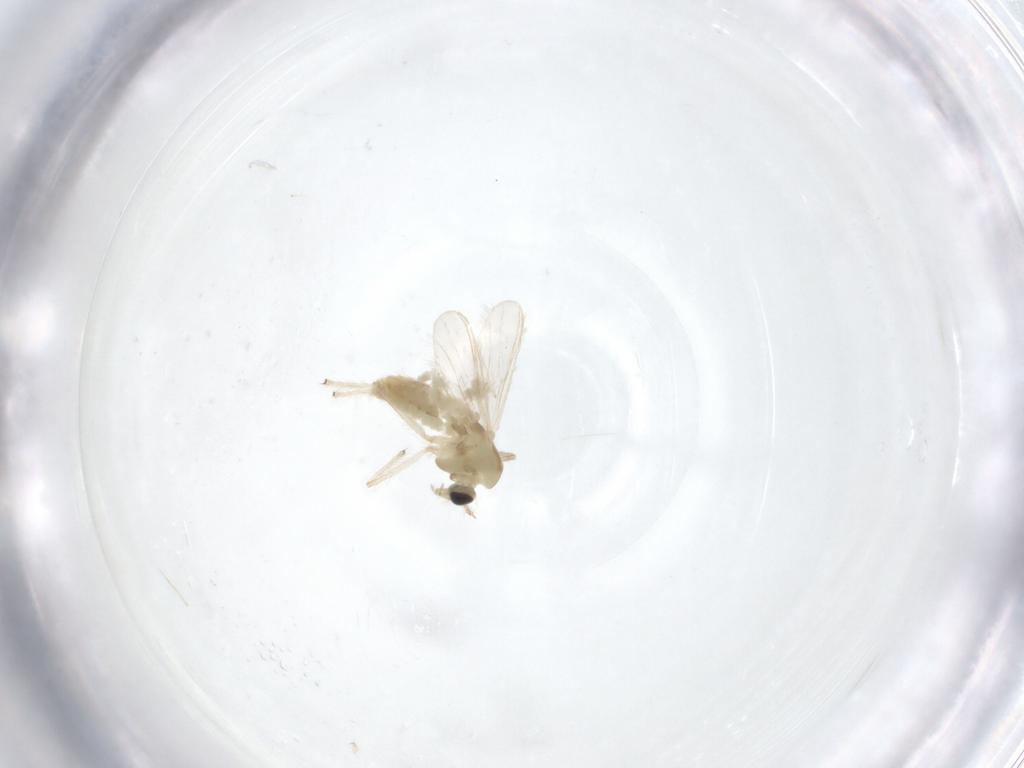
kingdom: Animalia
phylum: Arthropoda
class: Insecta
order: Diptera
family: Chironomidae
